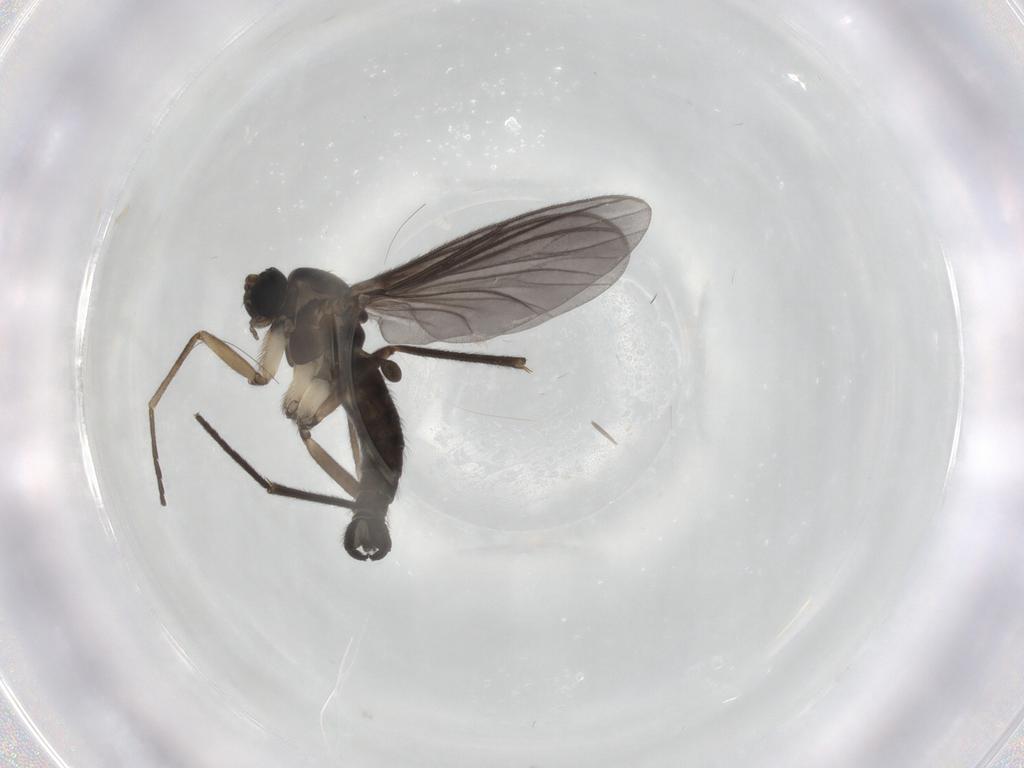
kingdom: Animalia
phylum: Arthropoda
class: Insecta
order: Diptera
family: Sciaridae
